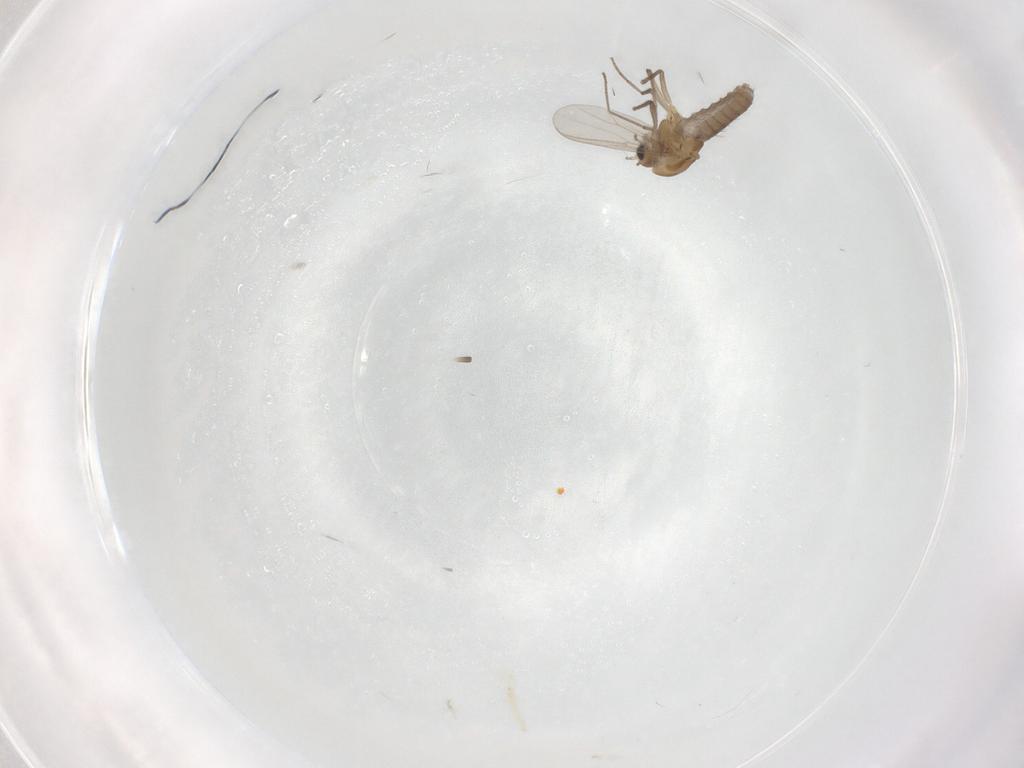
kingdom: Animalia
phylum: Arthropoda
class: Insecta
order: Diptera
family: Chironomidae
